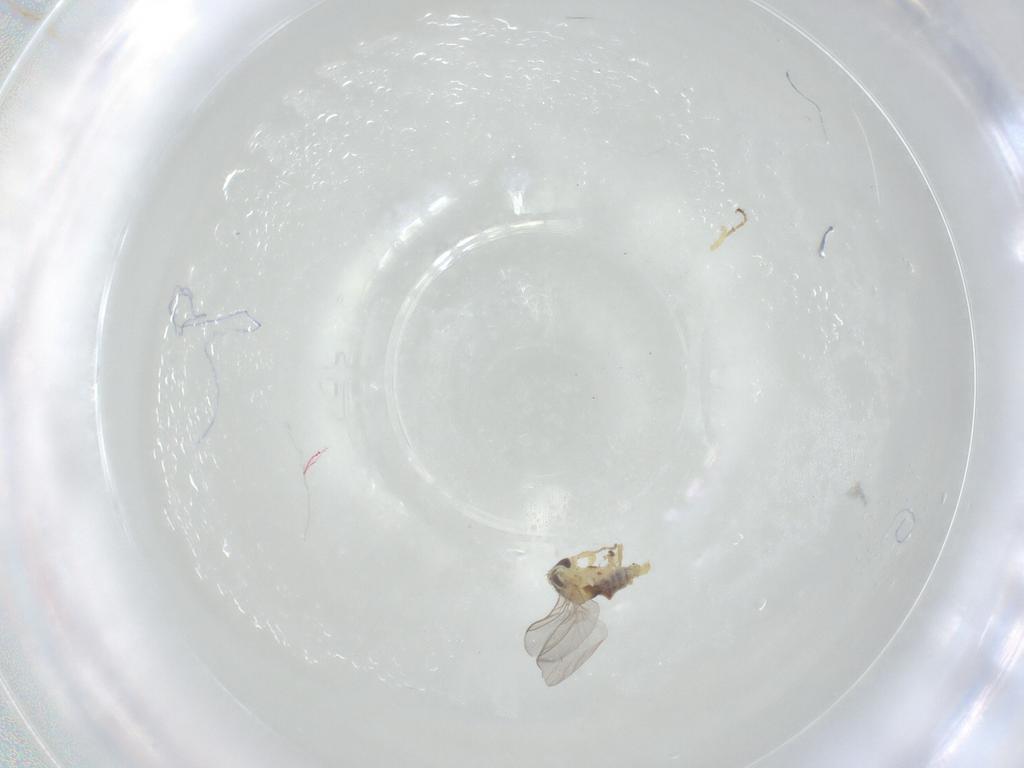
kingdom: Animalia
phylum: Arthropoda
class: Insecta
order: Diptera
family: Agromyzidae
